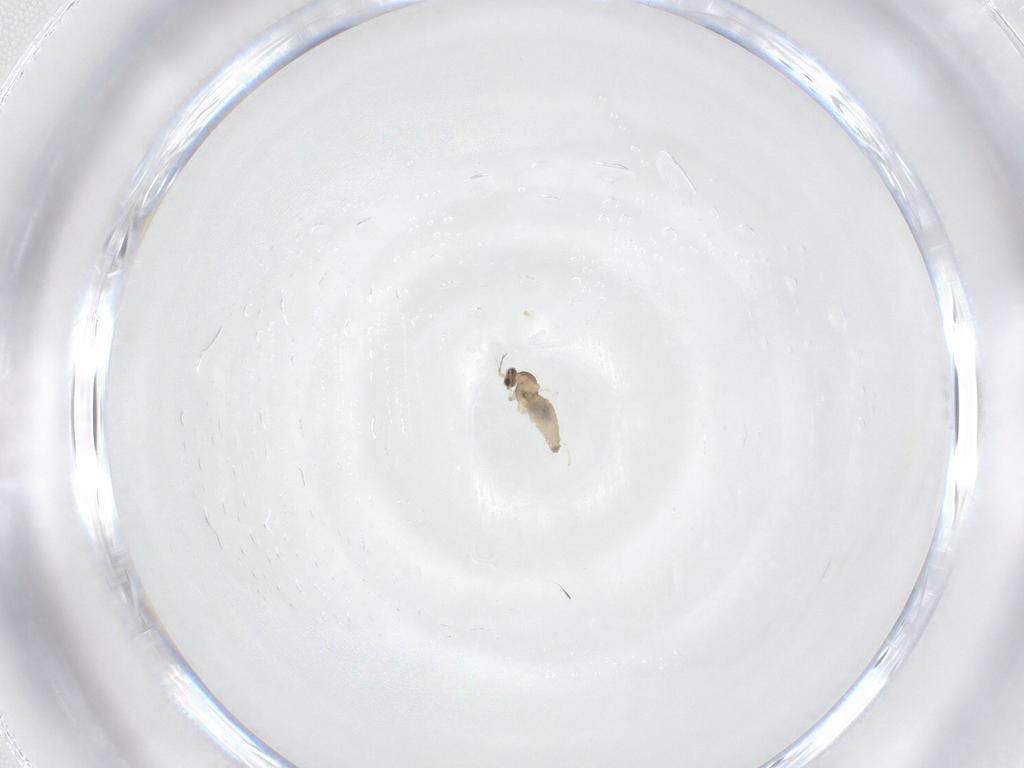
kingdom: Animalia
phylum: Arthropoda
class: Insecta
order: Diptera
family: Cecidomyiidae
